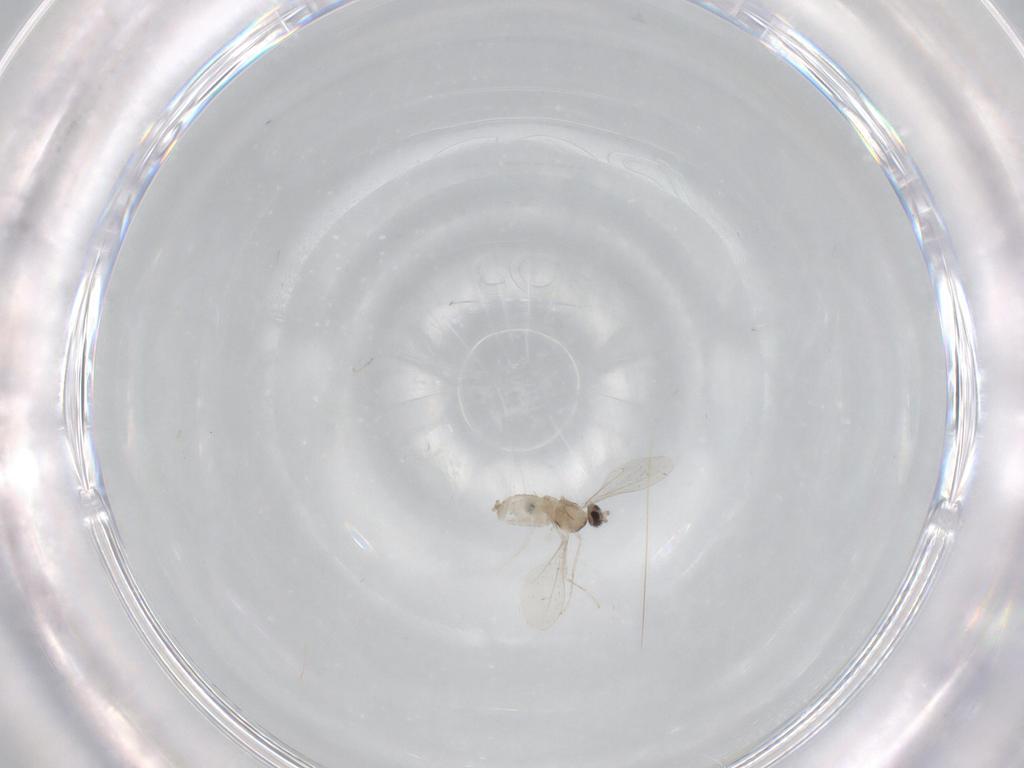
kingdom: Animalia
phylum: Arthropoda
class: Insecta
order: Diptera
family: Cecidomyiidae
